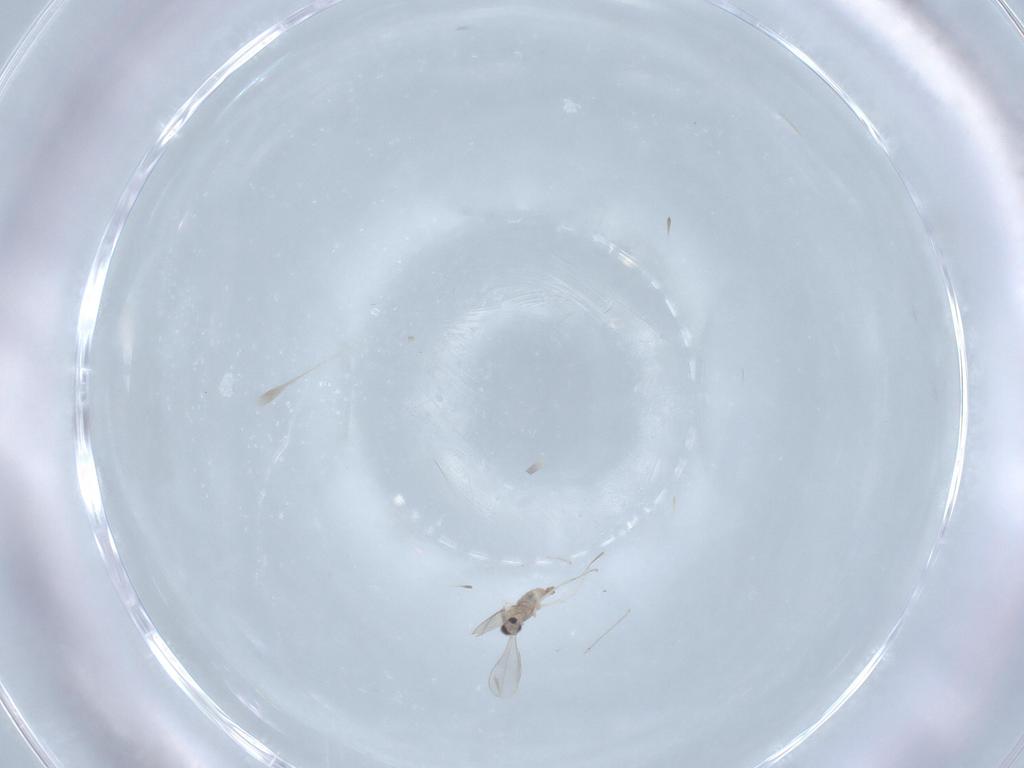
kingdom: Animalia
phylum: Arthropoda
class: Insecta
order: Diptera
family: Cecidomyiidae
